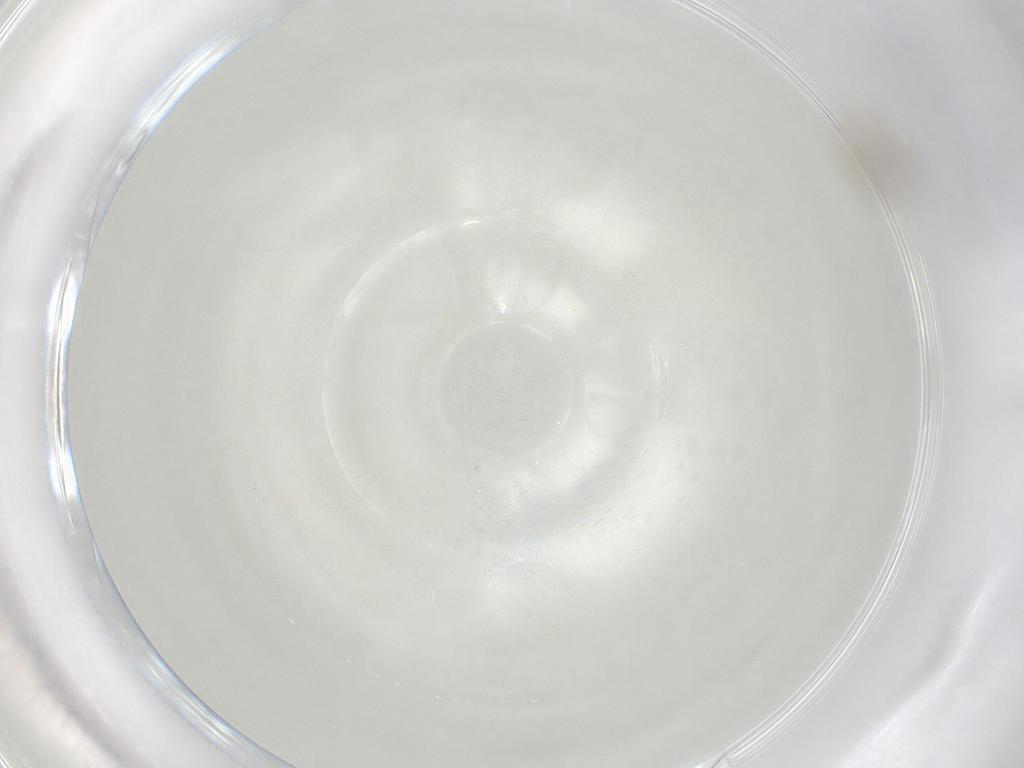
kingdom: Animalia
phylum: Arthropoda
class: Insecta
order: Hymenoptera
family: Mymaridae
